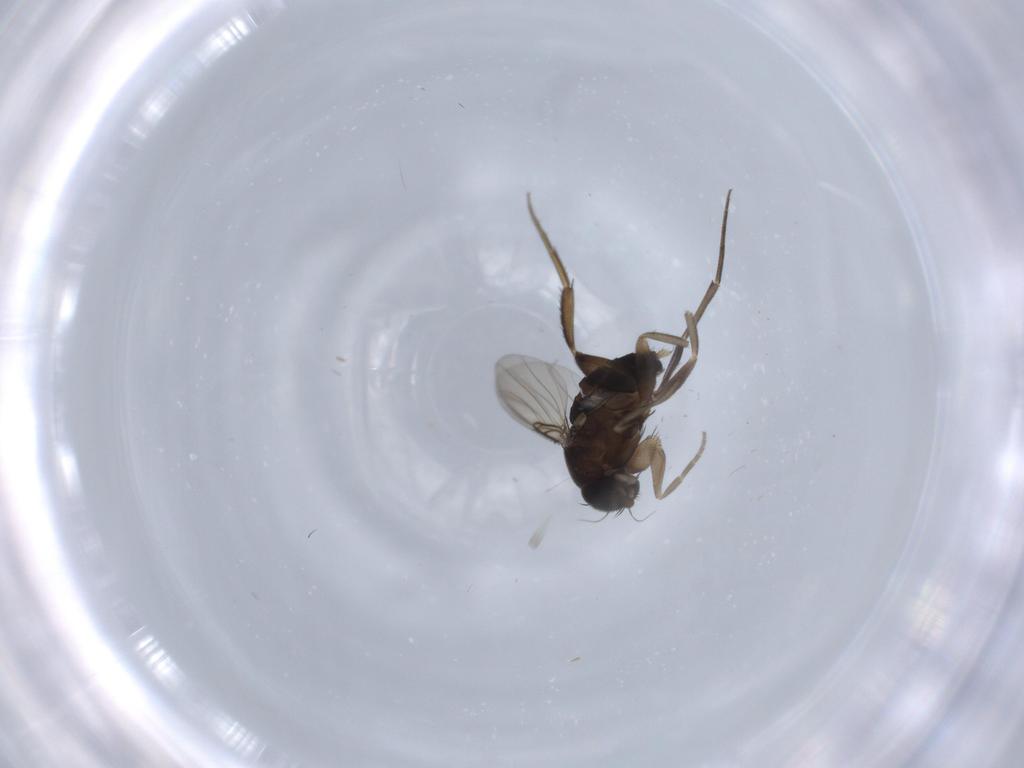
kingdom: Animalia
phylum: Arthropoda
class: Insecta
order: Diptera
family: Phoridae
